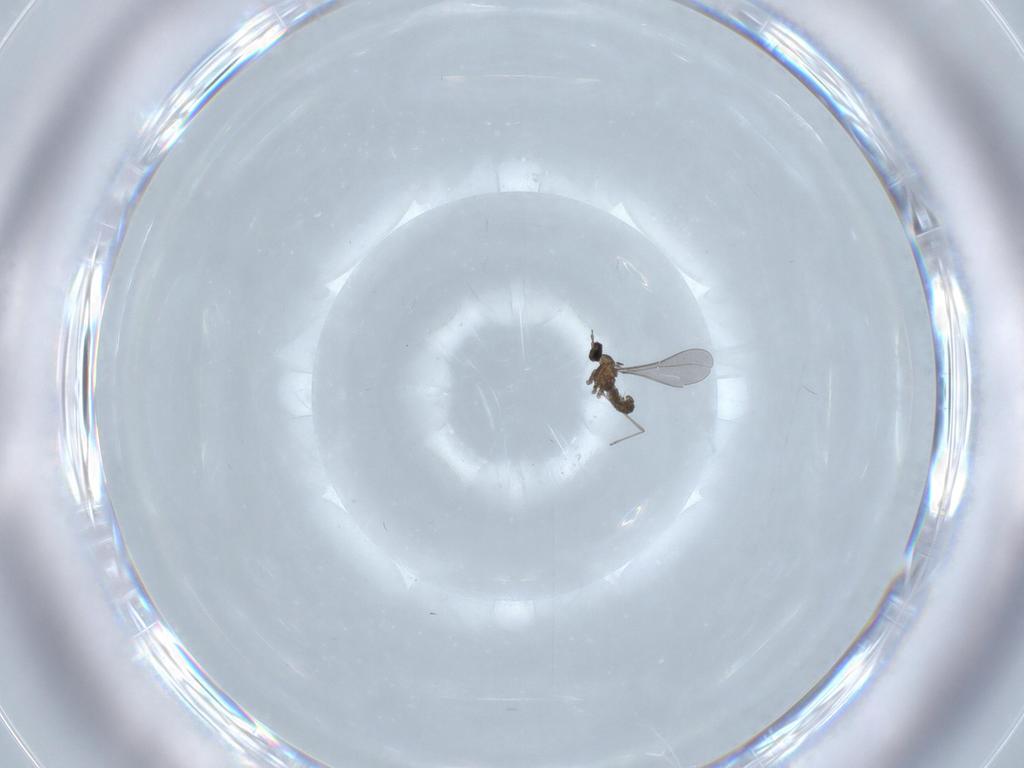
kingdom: Animalia
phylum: Arthropoda
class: Insecta
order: Diptera
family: Cecidomyiidae
